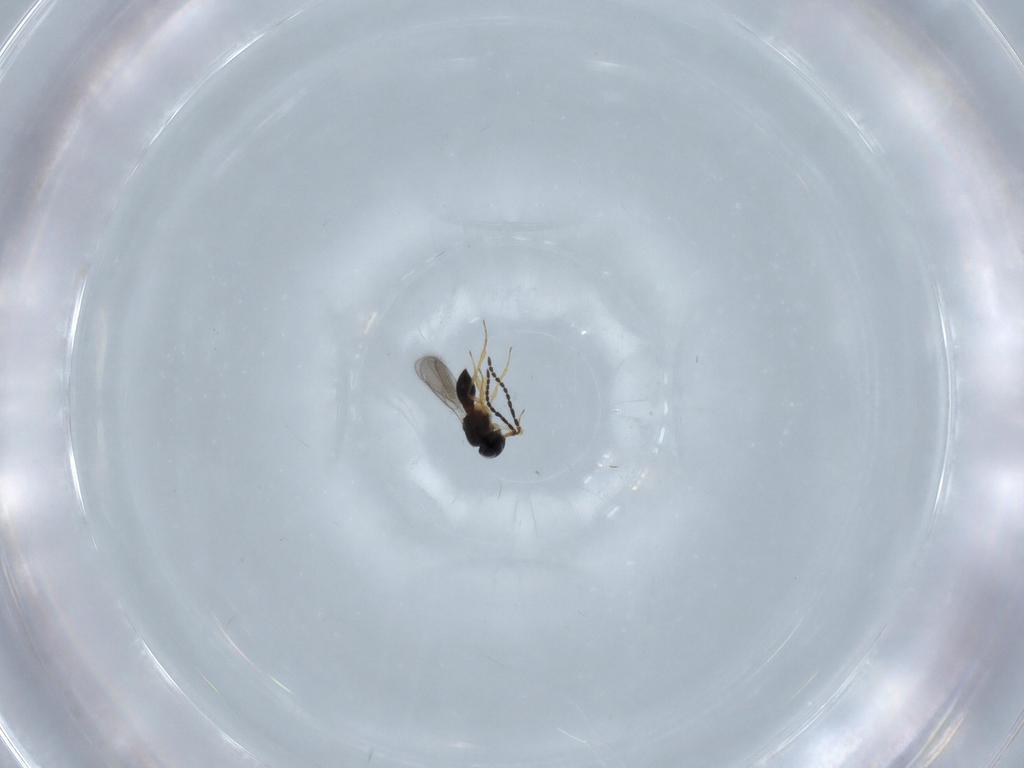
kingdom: Animalia
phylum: Arthropoda
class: Insecta
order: Hymenoptera
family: Scelionidae
